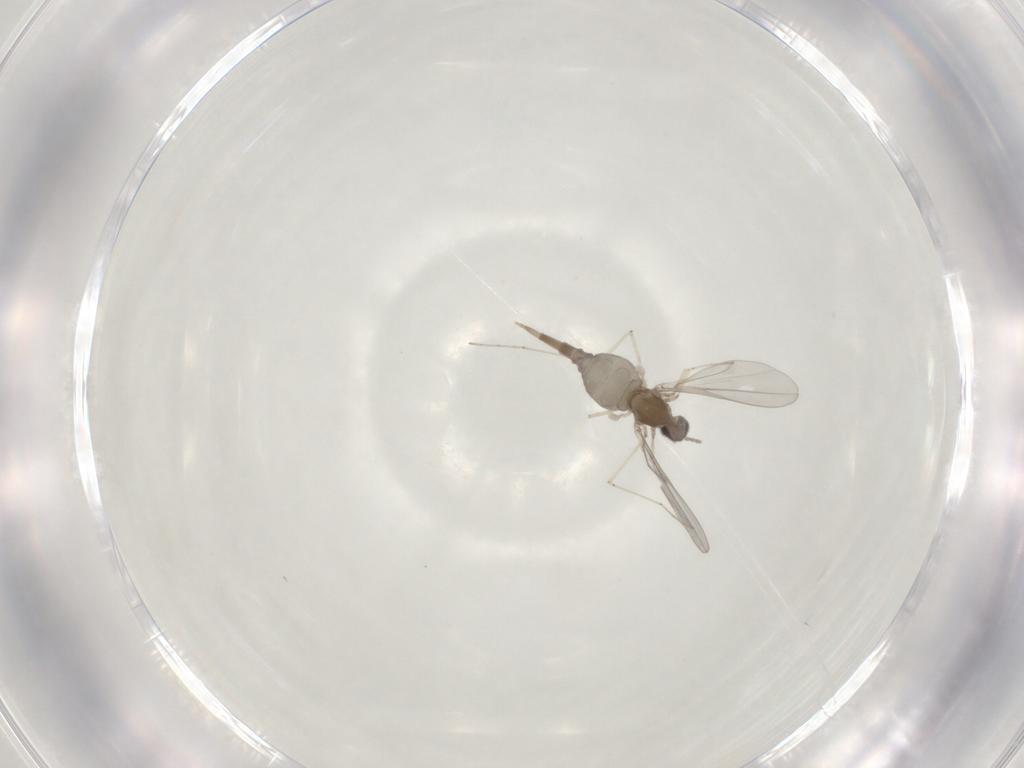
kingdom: Animalia
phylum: Arthropoda
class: Insecta
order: Diptera
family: Cecidomyiidae
